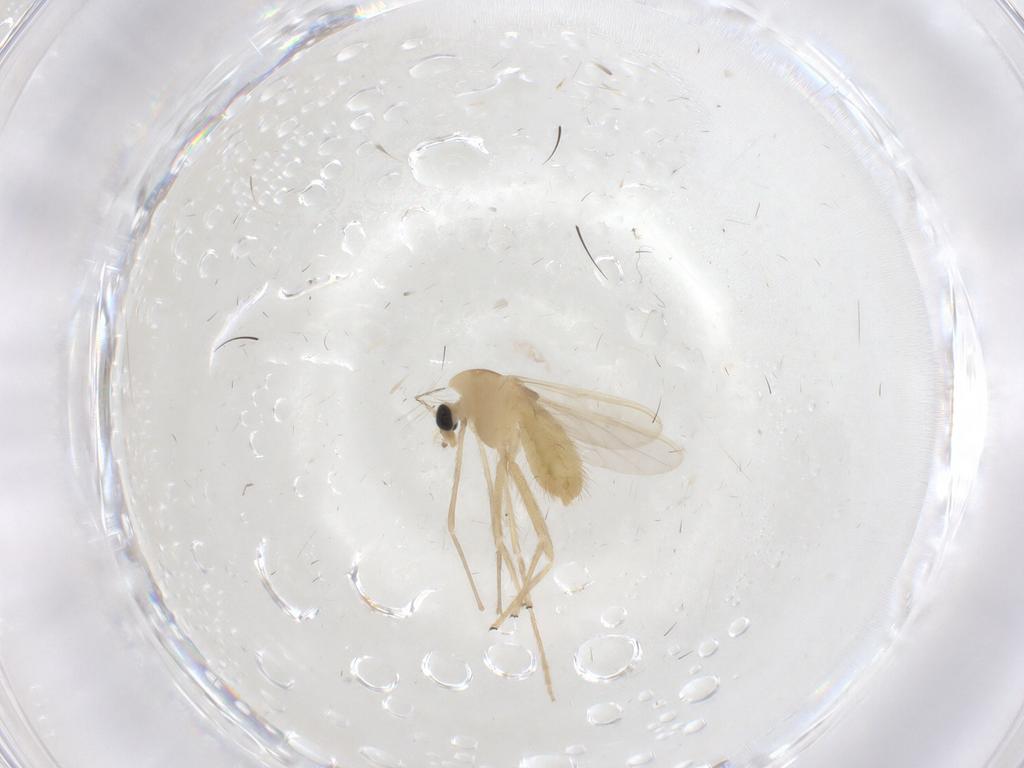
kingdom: Animalia
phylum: Arthropoda
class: Insecta
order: Diptera
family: Chironomidae
